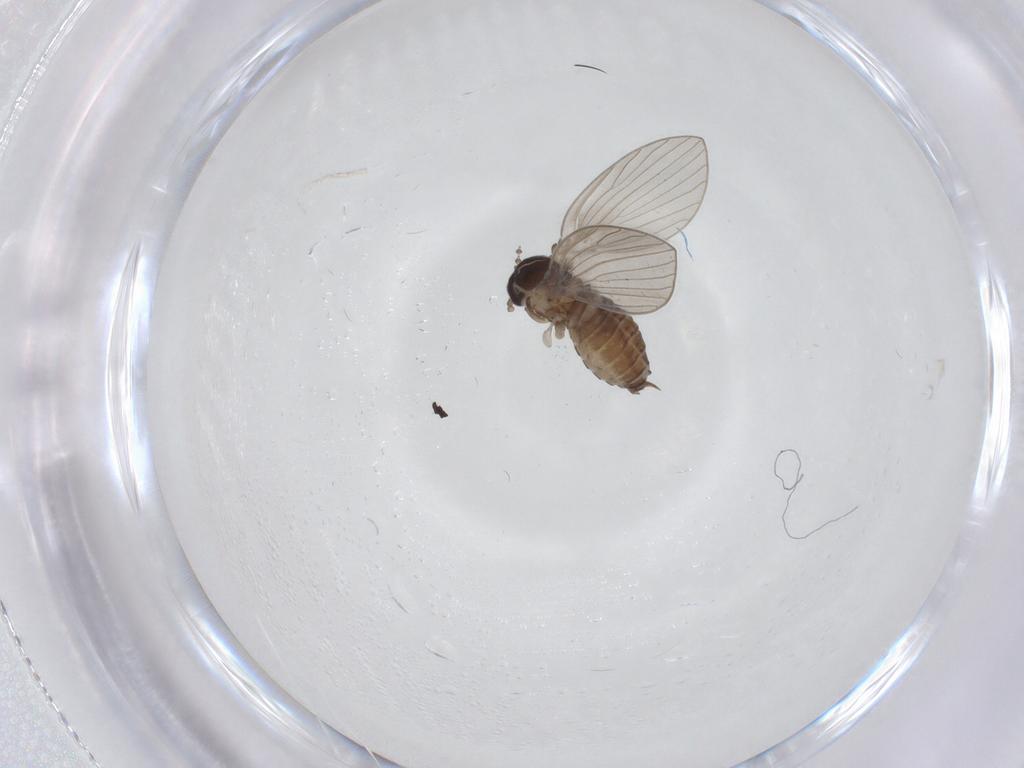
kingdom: Animalia
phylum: Arthropoda
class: Insecta
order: Diptera
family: Psychodidae
